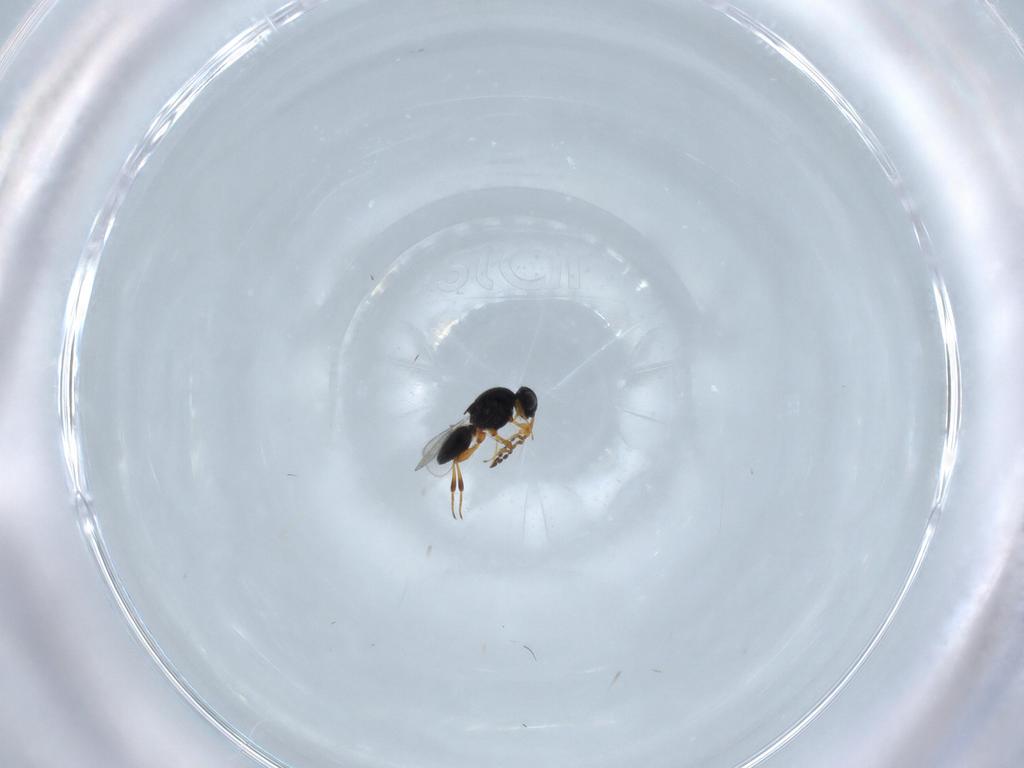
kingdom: Animalia
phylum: Arthropoda
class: Insecta
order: Hymenoptera
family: Platygastridae
